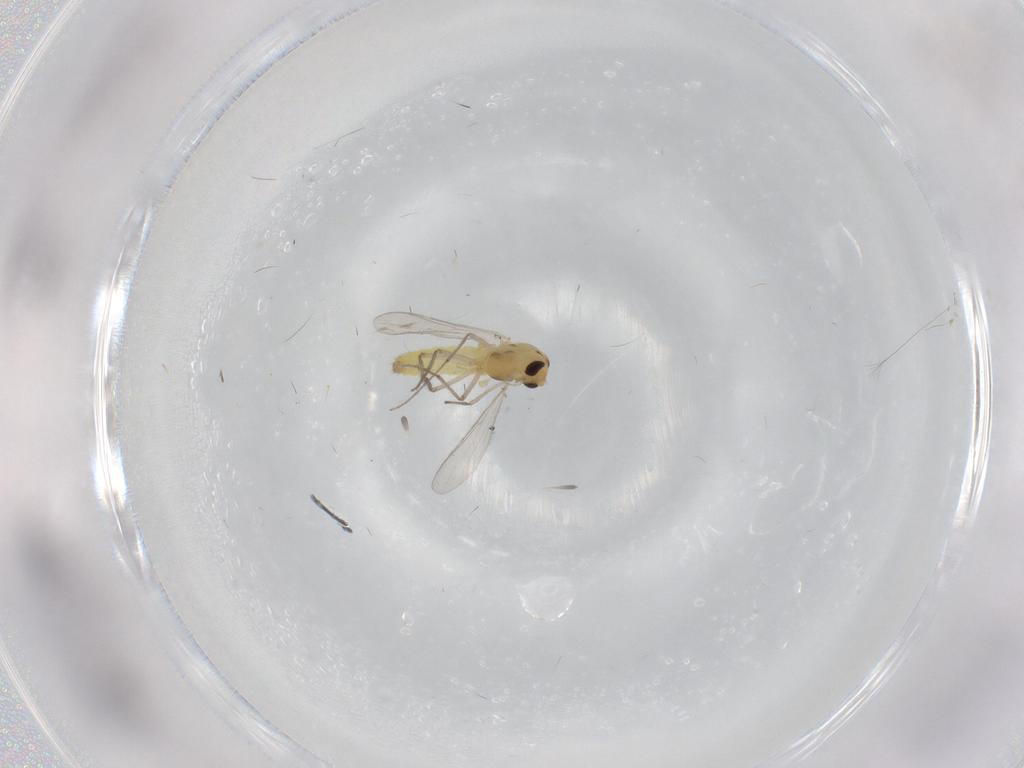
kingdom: Animalia
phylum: Arthropoda
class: Insecta
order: Diptera
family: Chironomidae
